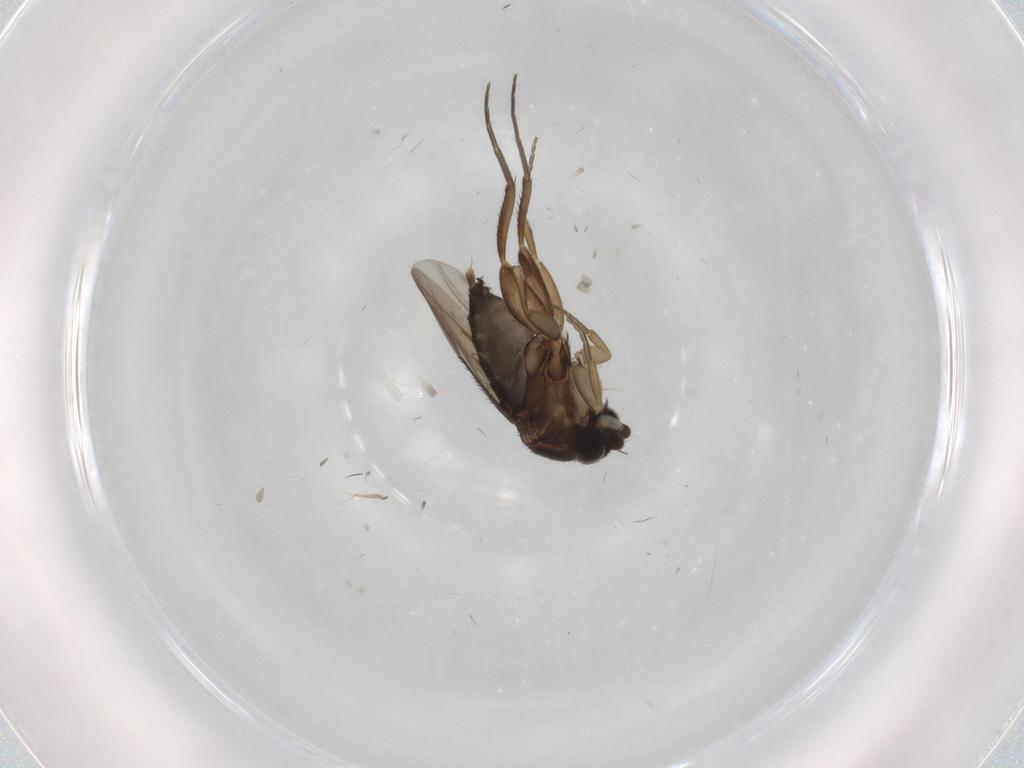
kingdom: Animalia
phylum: Arthropoda
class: Insecta
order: Diptera
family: Phoridae
